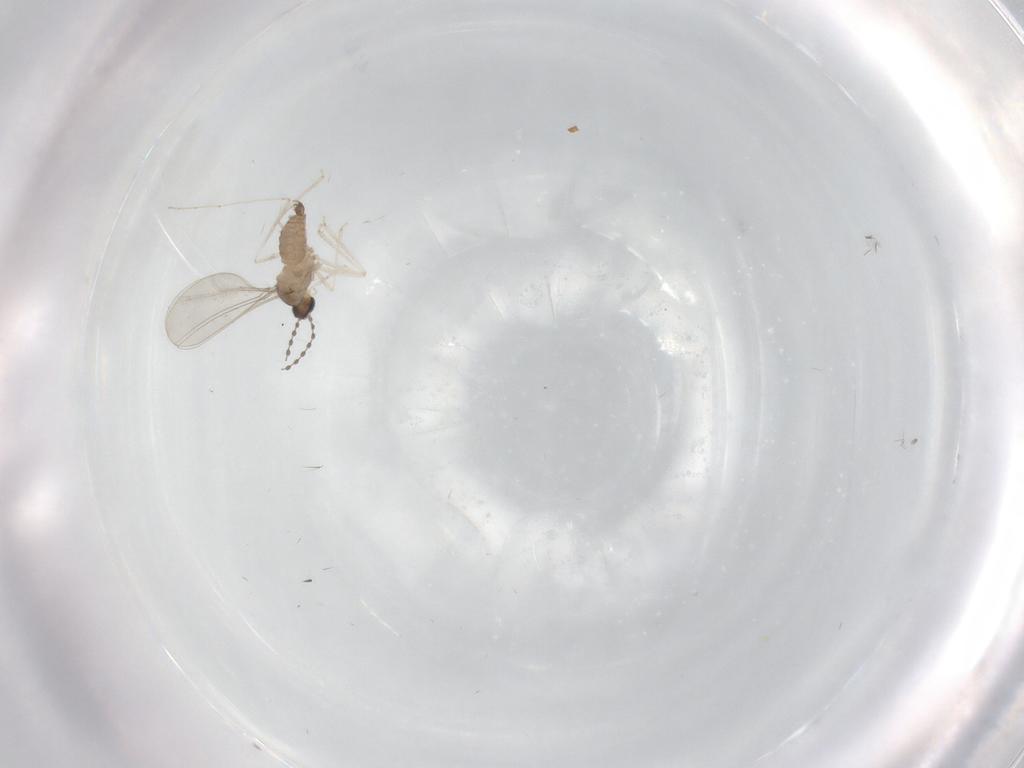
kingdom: Animalia
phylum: Arthropoda
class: Insecta
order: Diptera
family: Cecidomyiidae
